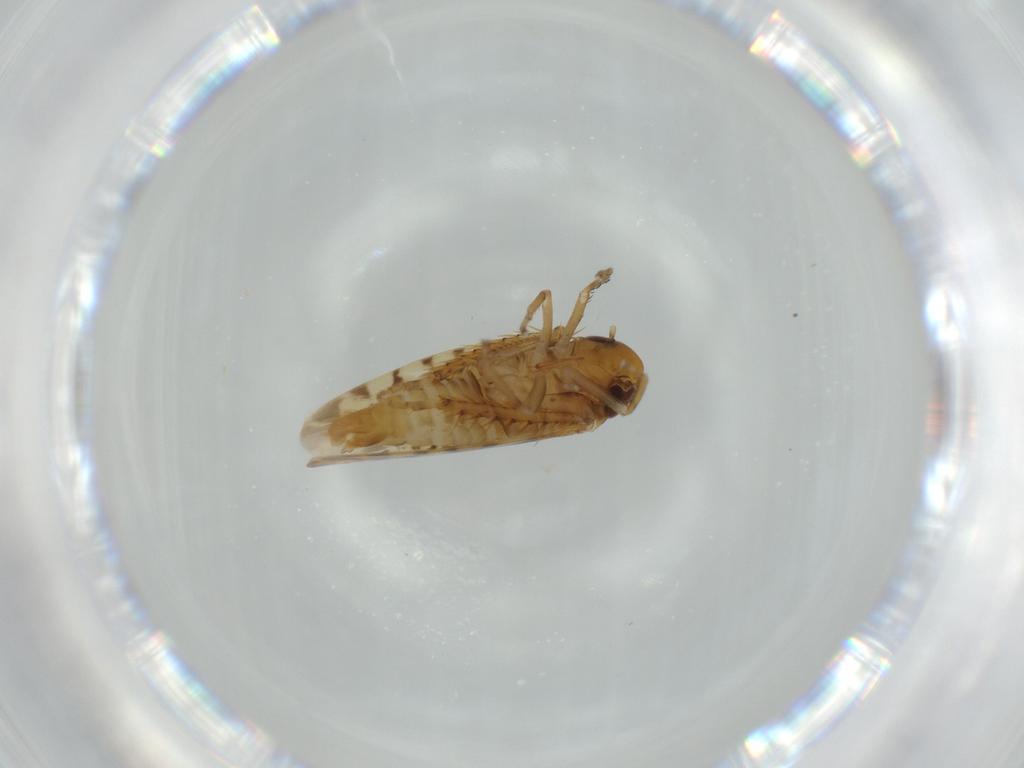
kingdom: Animalia
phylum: Arthropoda
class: Insecta
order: Hemiptera
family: Cicadellidae
